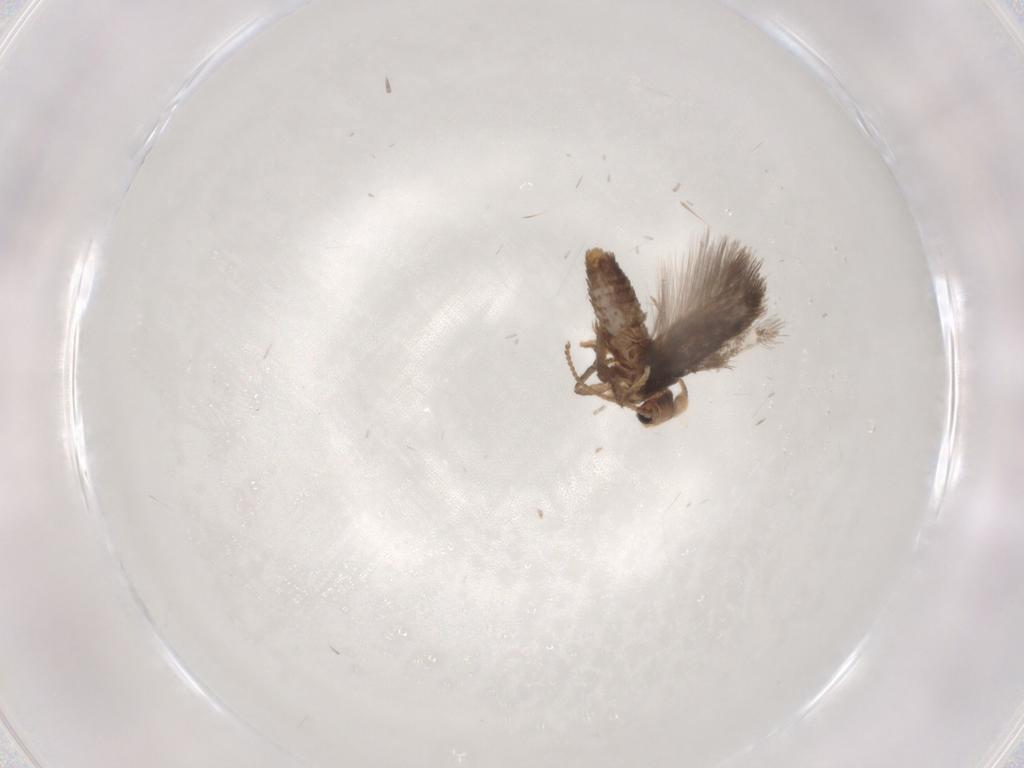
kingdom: Animalia
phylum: Arthropoda
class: Insecta
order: Lepidoptera
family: Nepticulidae
